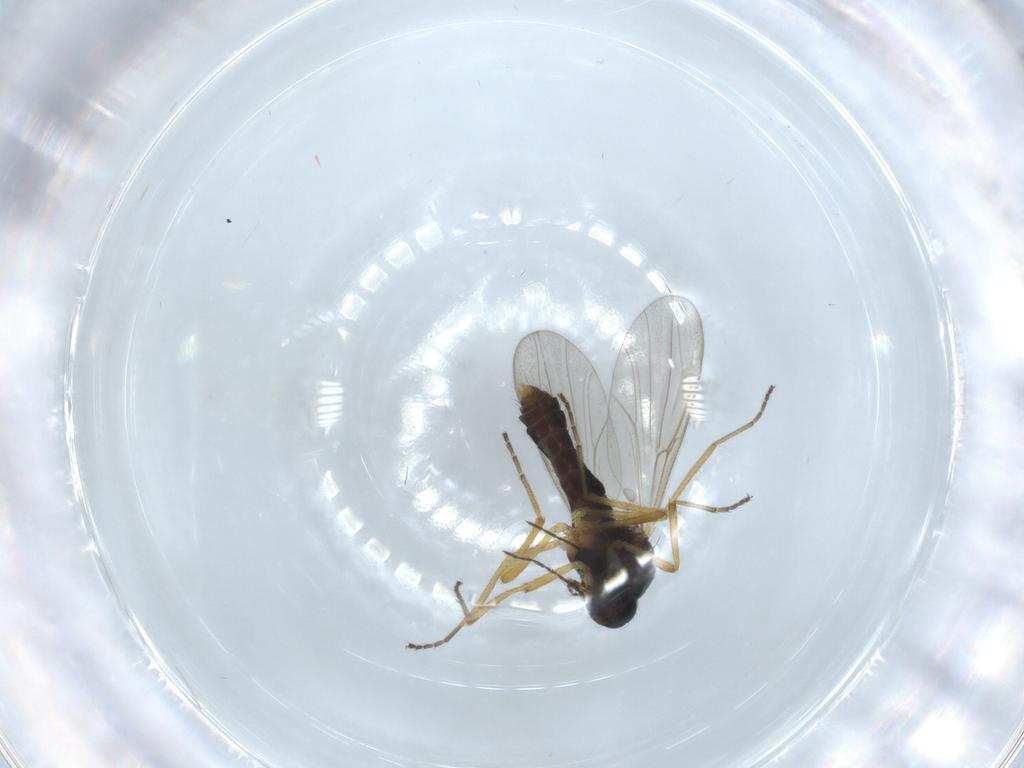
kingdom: Animalia
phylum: Arthropoda
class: Insecta
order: Diptera
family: Ceratopogonidae
